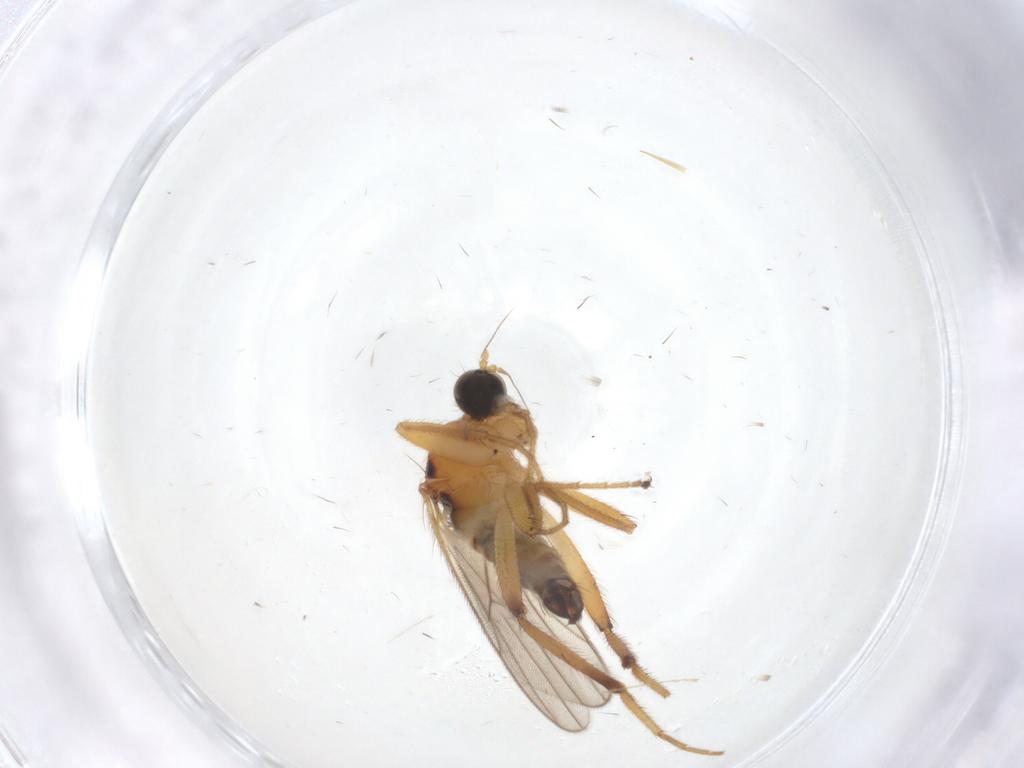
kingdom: Animalia
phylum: Arthropoda
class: Insecta
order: Diptera
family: Hybotidae
